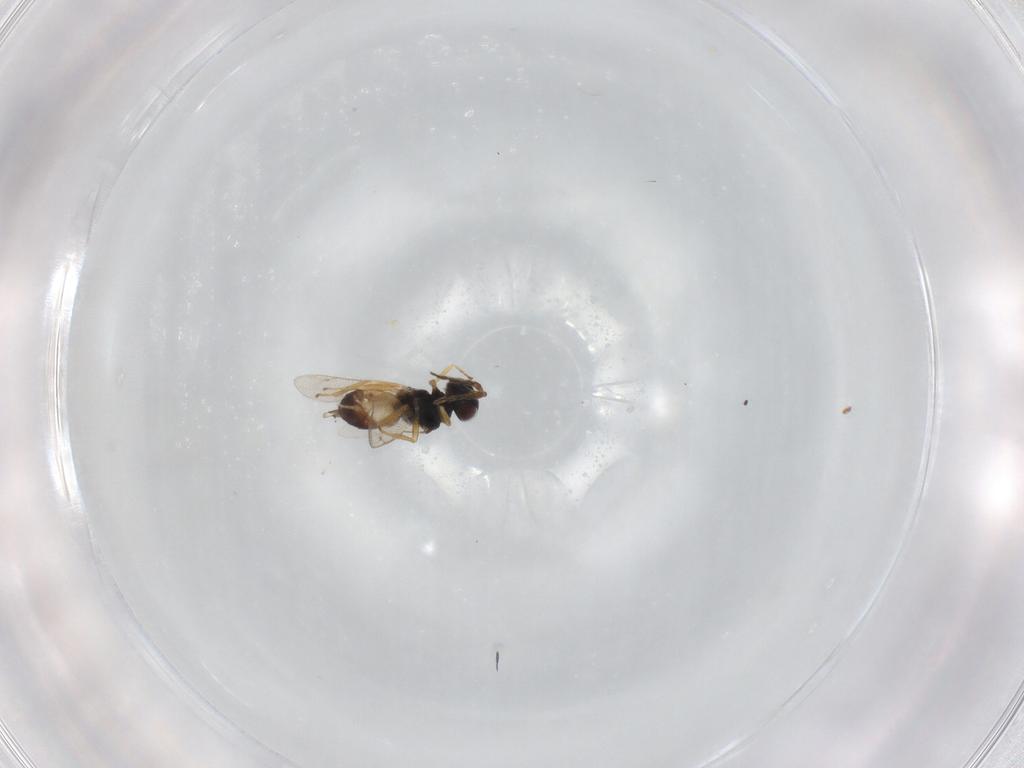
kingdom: Animalia
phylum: Arthropoda
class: Insecta
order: Hymenoptera
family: Eulophidae
